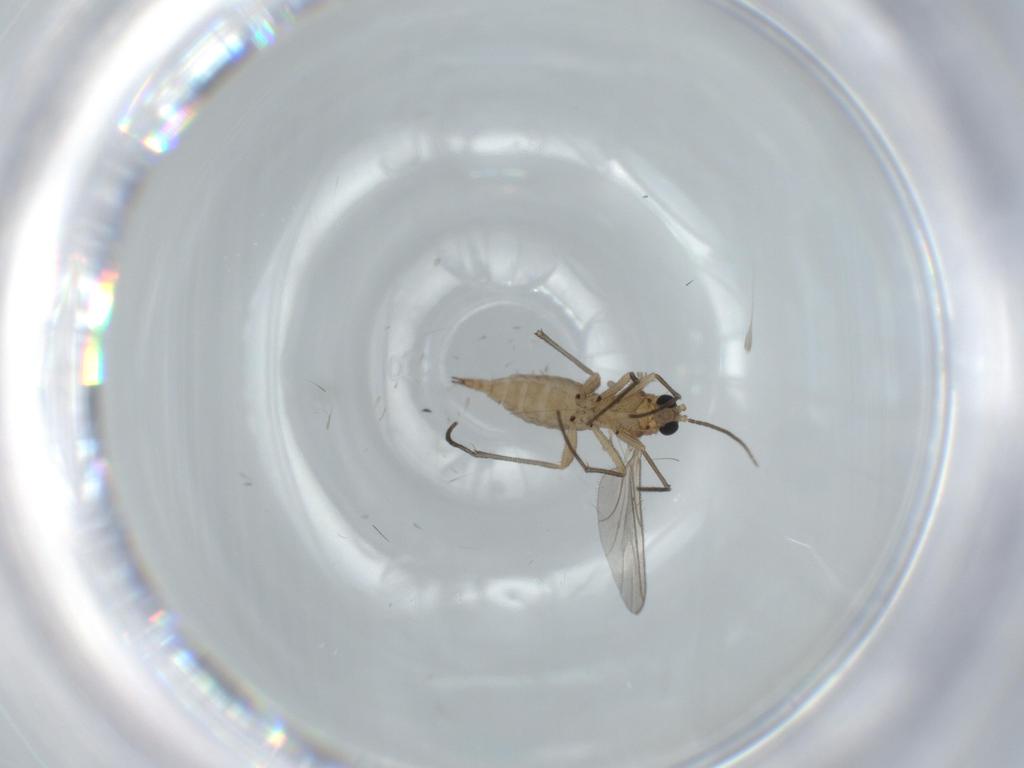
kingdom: Animalia
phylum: Arthropoda
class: Insecta
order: Diptera
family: Sciaridae
